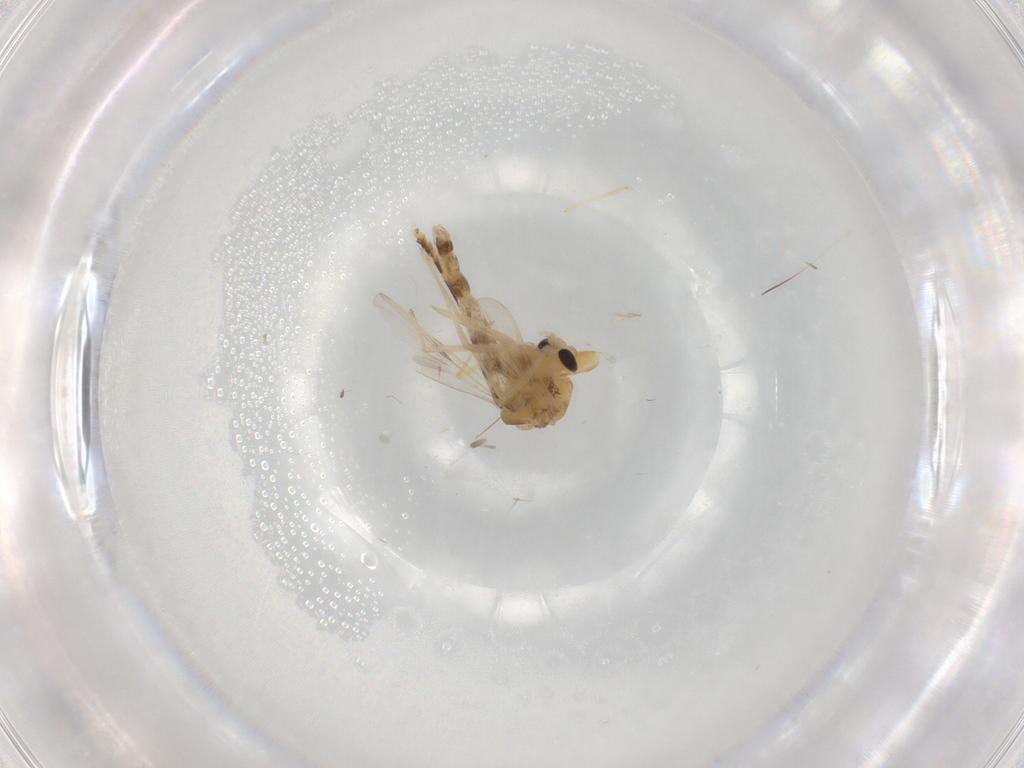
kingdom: Animalia
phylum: Arthropoda
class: Insecta
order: Diptera
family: Chironomidae
